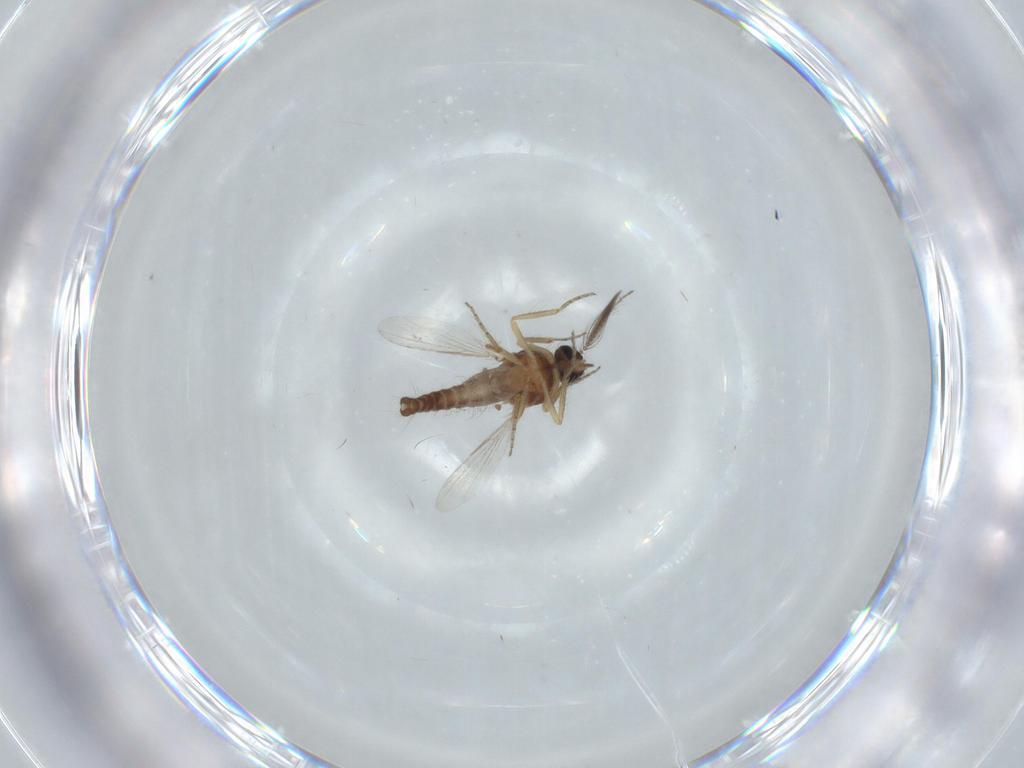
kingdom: Animalia
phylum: Arthropoda
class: Insecta
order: Diptera
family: Ceratopogonidae
